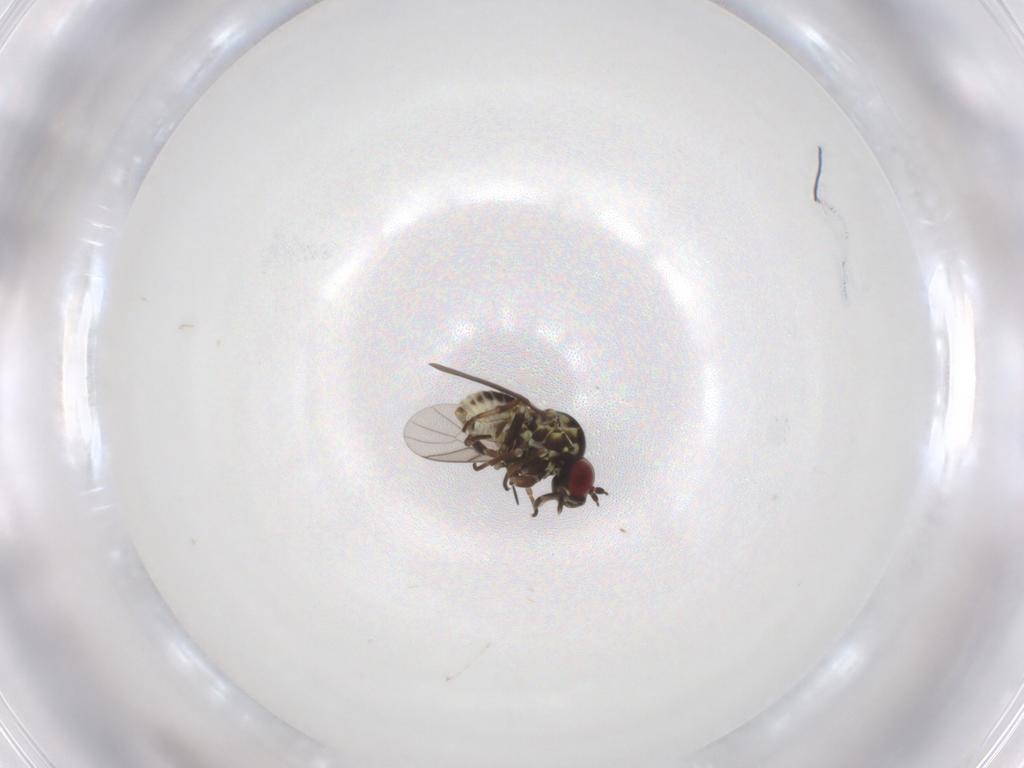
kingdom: Animalia
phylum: Arthropoda
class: Insecta
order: Diptera
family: Bombyliidae
